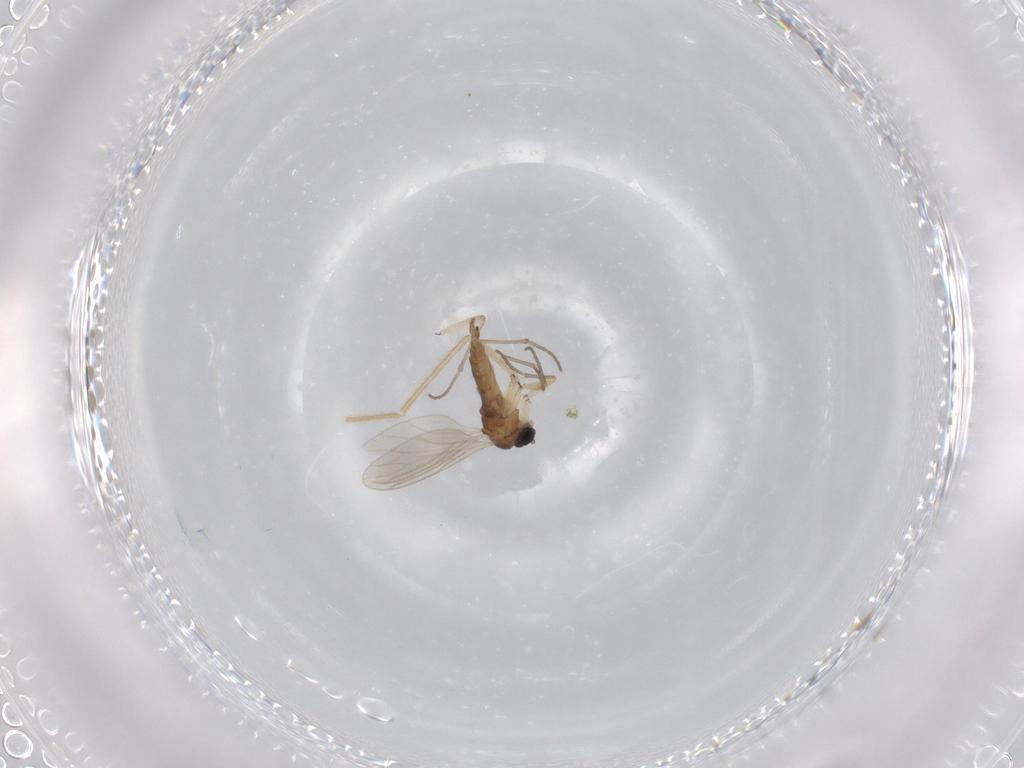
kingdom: Animalia
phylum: Arthropoda
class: Insecta
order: Diptera
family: Sciaridae
